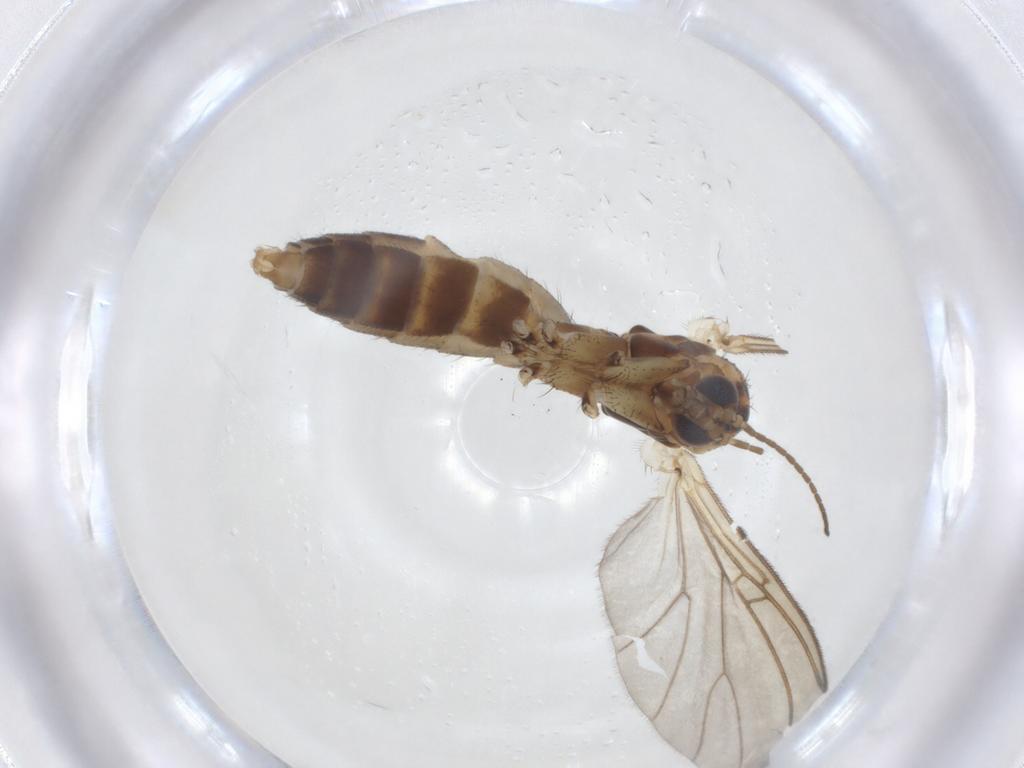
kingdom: Animalia
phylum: Arthropoda
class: Insecta
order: Diptera
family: Mycetophilidae
